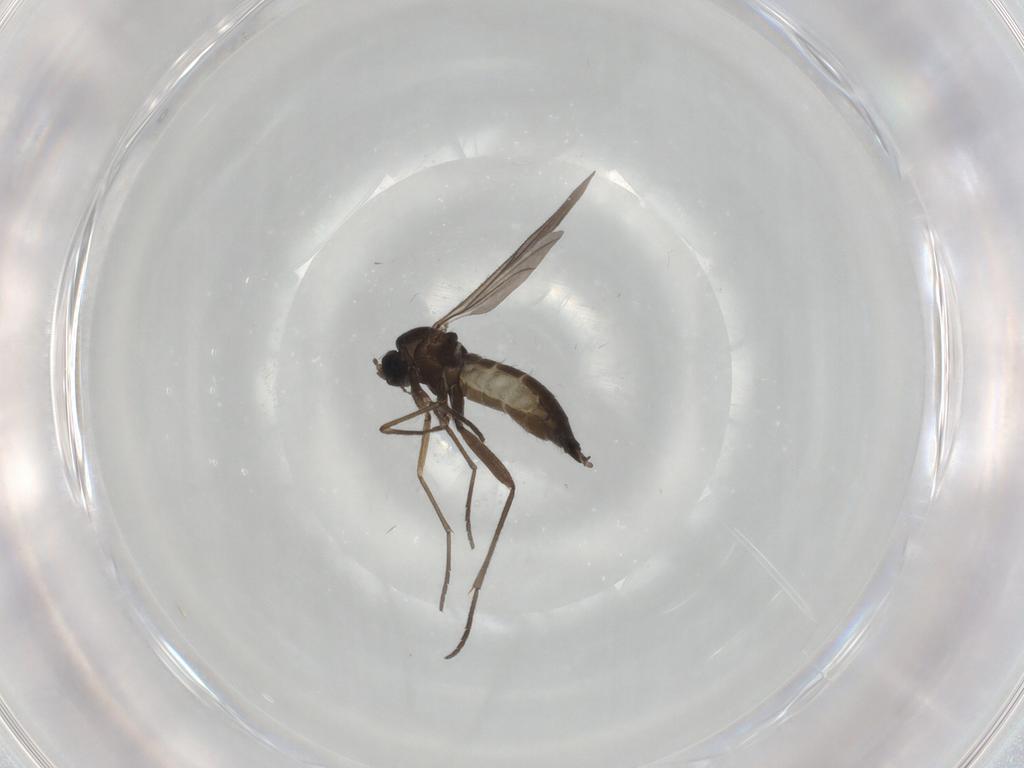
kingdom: Animalia
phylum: Arthropoda
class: Insecta
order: Diptera
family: Sciaridae
